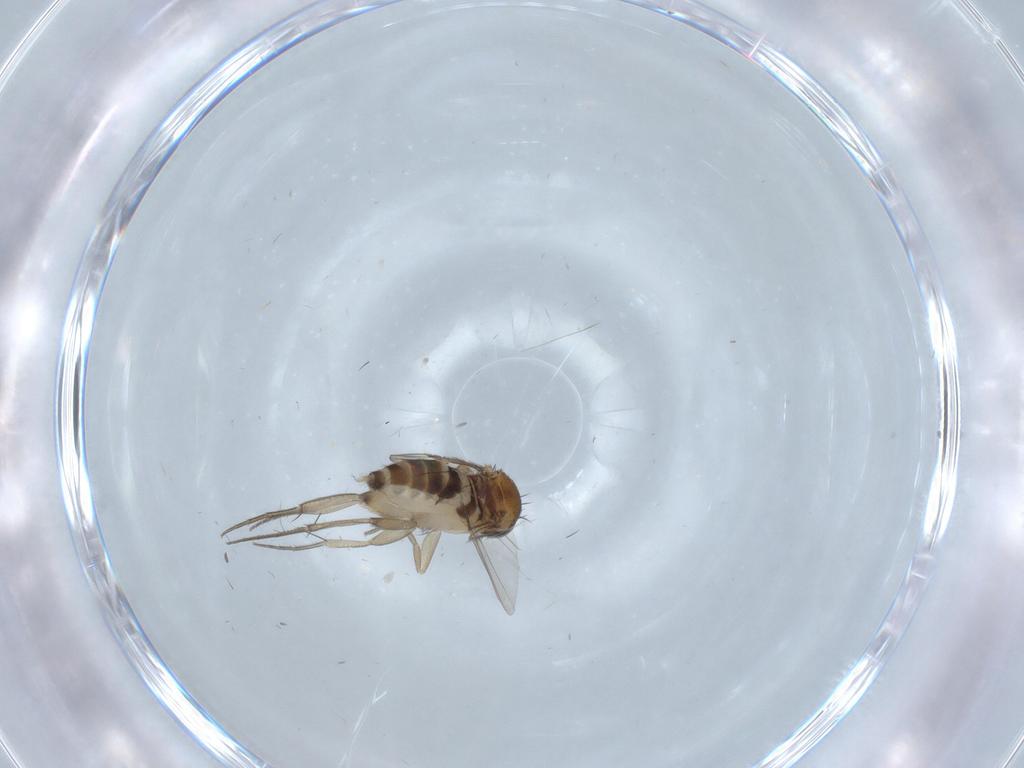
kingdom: Animalia
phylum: Arthropoda
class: Insecta
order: Diptera
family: Phoridae
